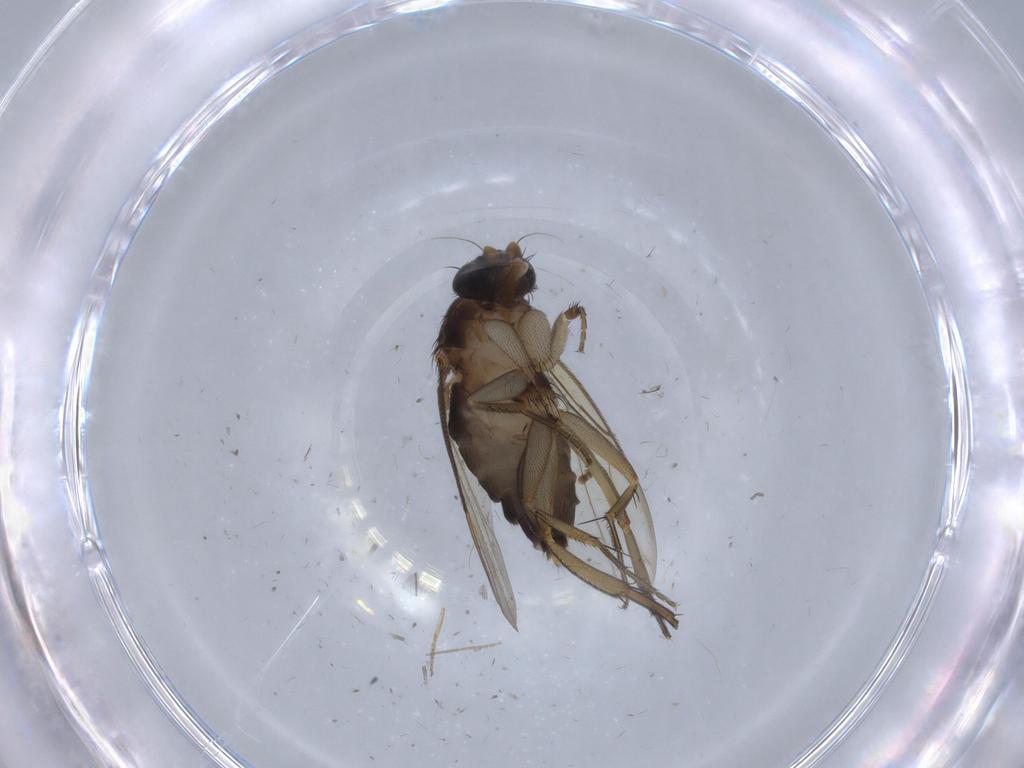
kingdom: Animalia
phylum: Arthropoda
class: Insecta
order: Diptera
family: Phoridae
